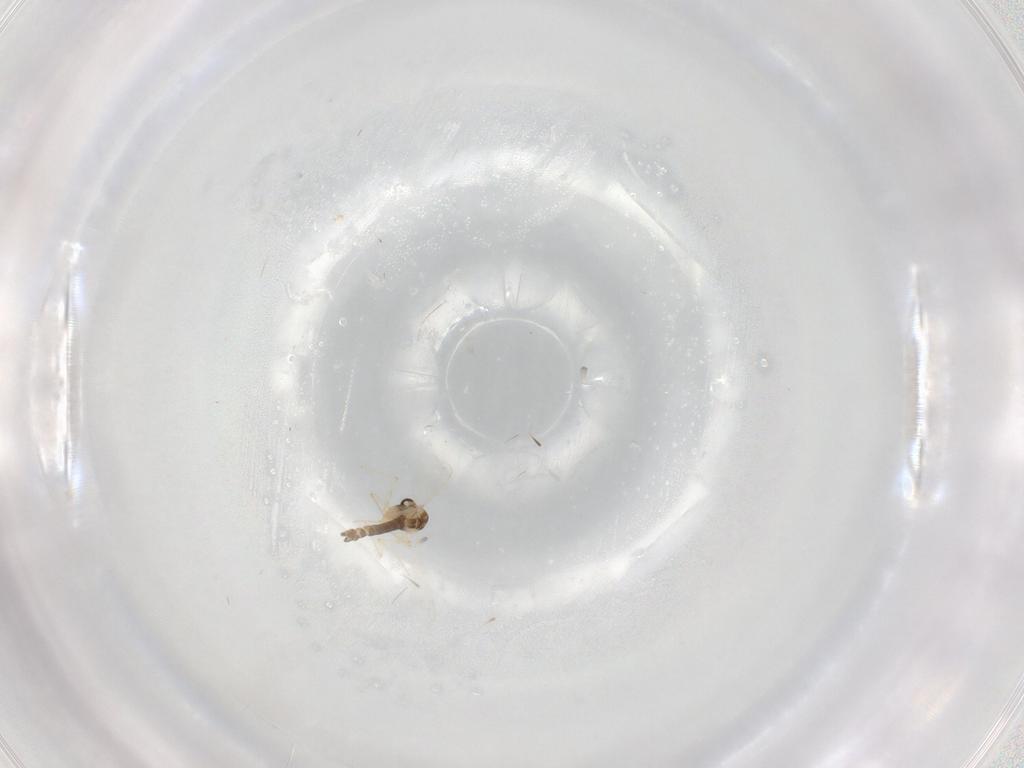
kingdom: Animalia
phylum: Arthropoda
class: Insecta
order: Diptera
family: Chironomidae
